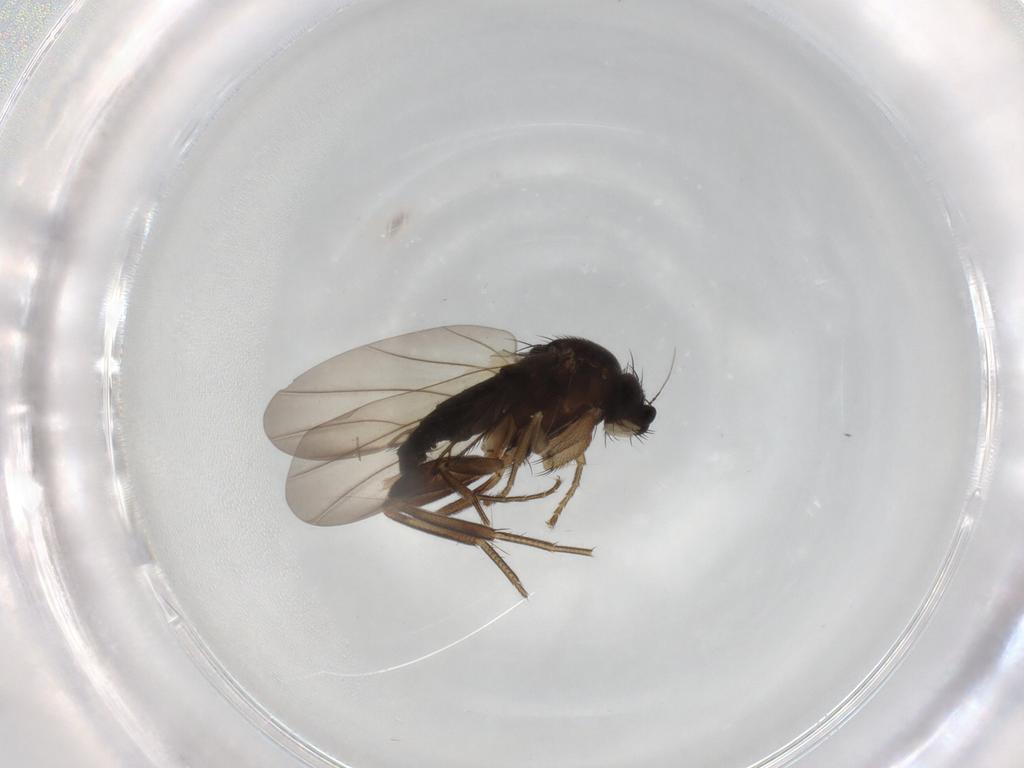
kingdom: Animalia
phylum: Arthropoda
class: Insecta
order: Diptera
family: Phoridae
